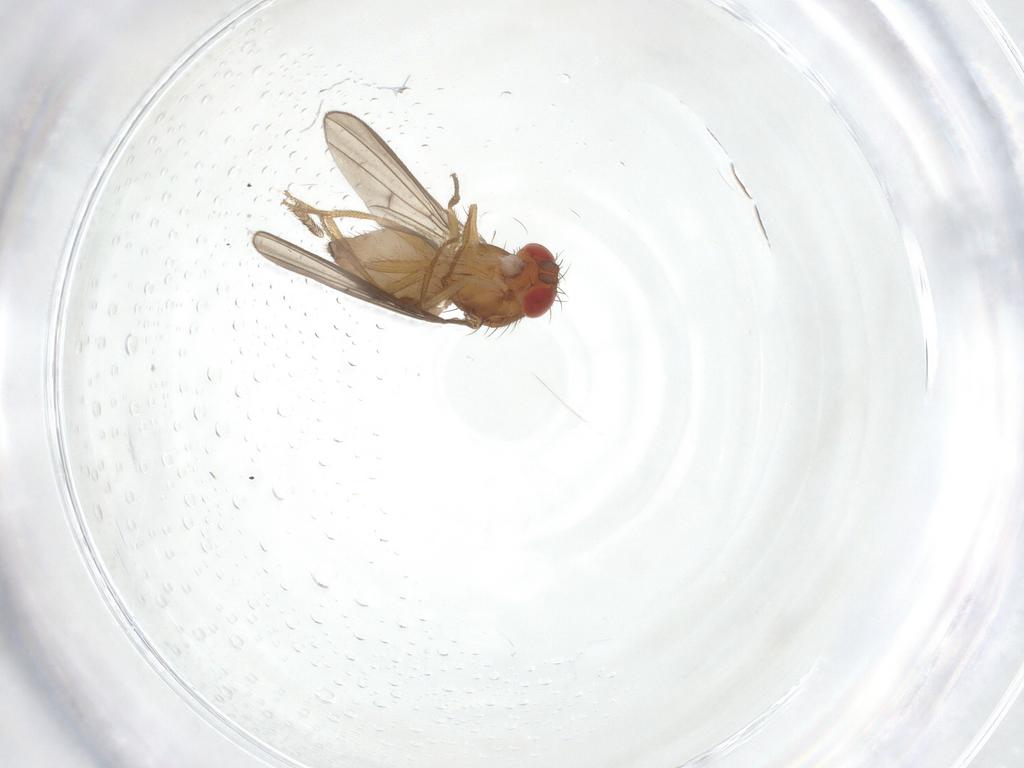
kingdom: Animalia
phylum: Arthropoda
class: Insecta
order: Diptera
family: Drosophilidae
